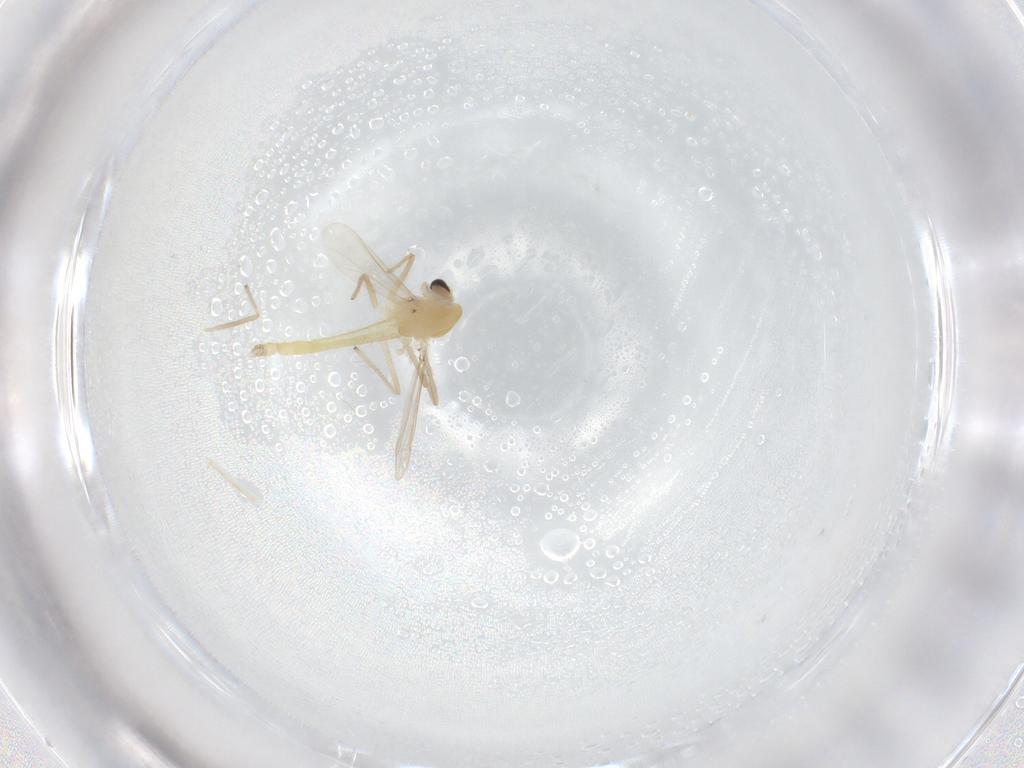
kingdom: Animalia
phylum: Arthropoda
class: Insecta
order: Diptera
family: Chironomidae
